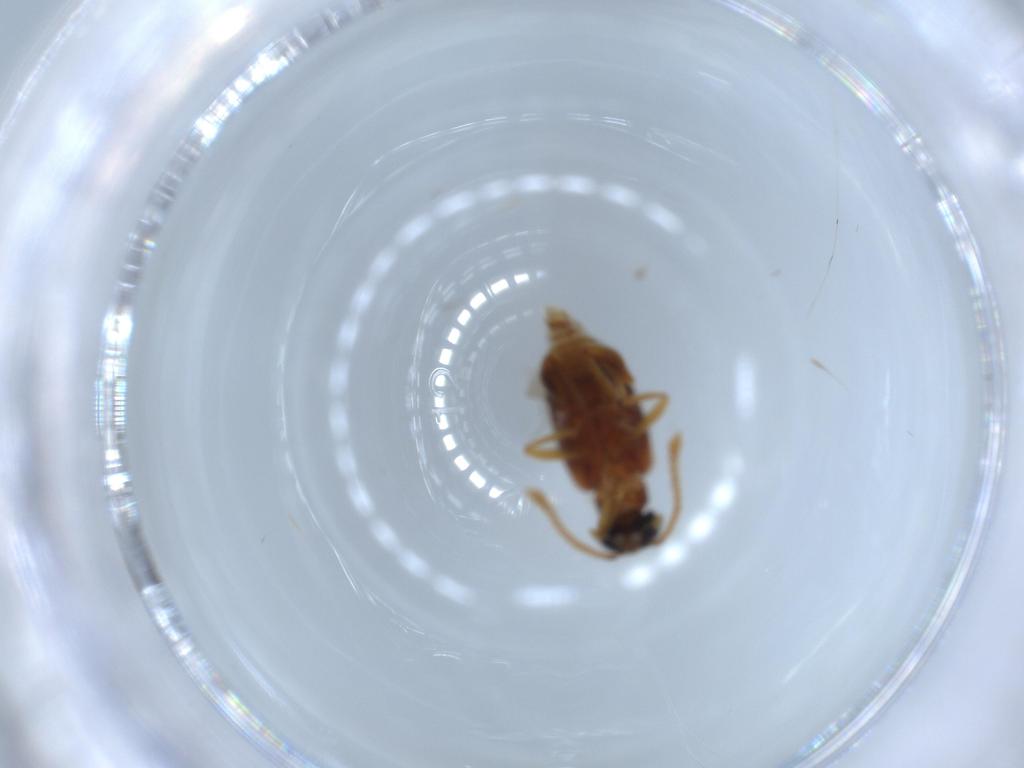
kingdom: Animalia
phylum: Arthropoda
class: Insecta
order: Coleoptera
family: Aderidae
